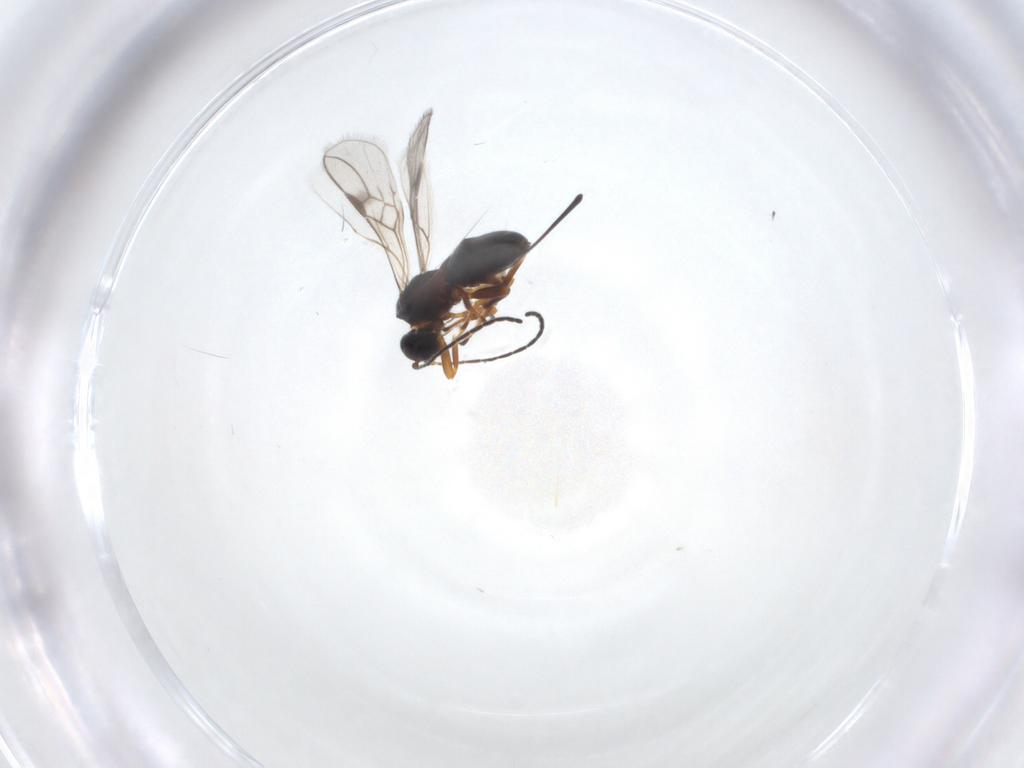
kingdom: Animalia
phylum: Arthropoda
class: Insecta
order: Hymenoptera
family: Braconidae
